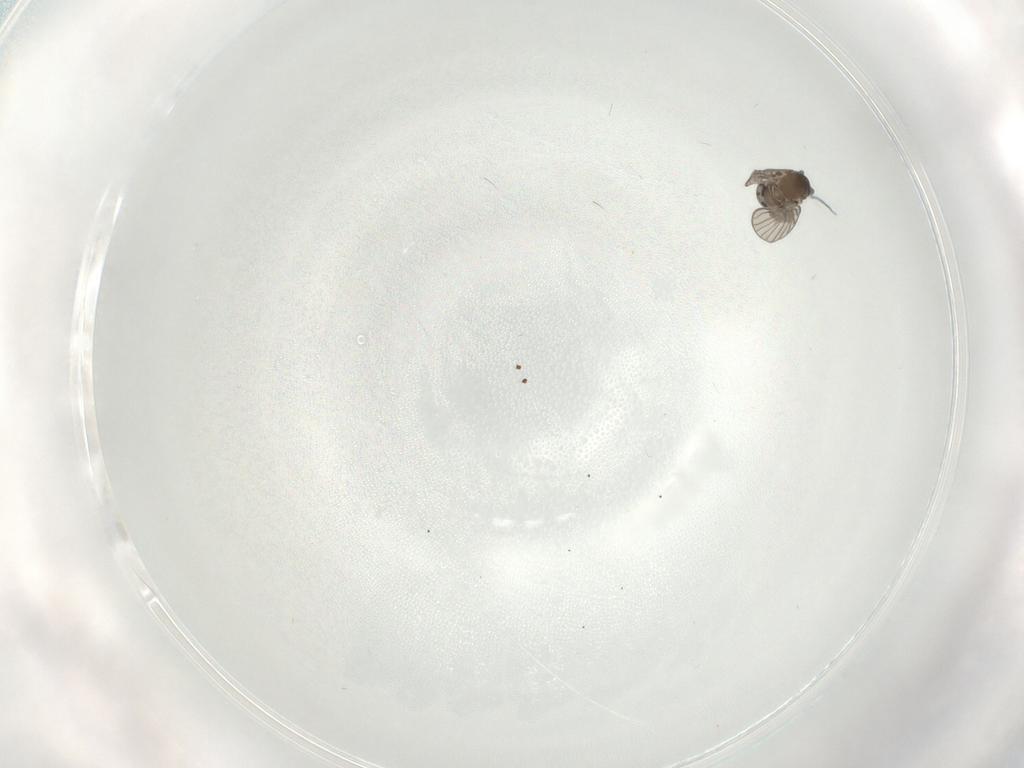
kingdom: Animalia
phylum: Arthropoda
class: Insecta
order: Diptera
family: Psychodidae
